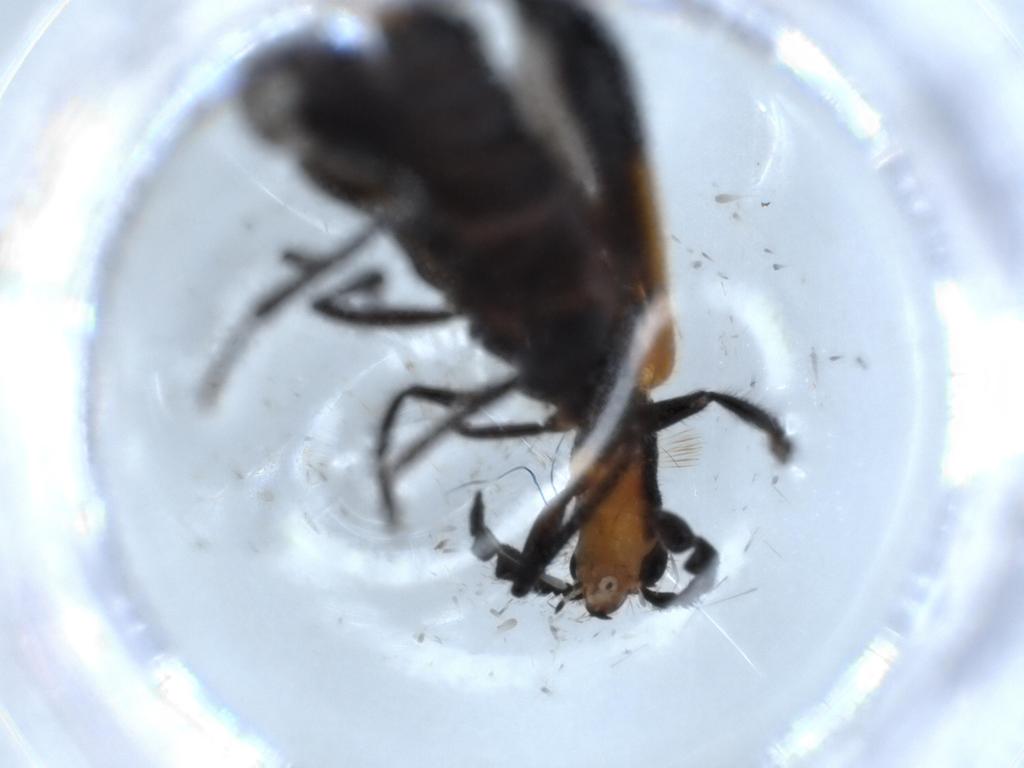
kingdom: Animalia
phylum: Arthropoda
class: Insecta
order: Coleoptera
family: Cleridae
